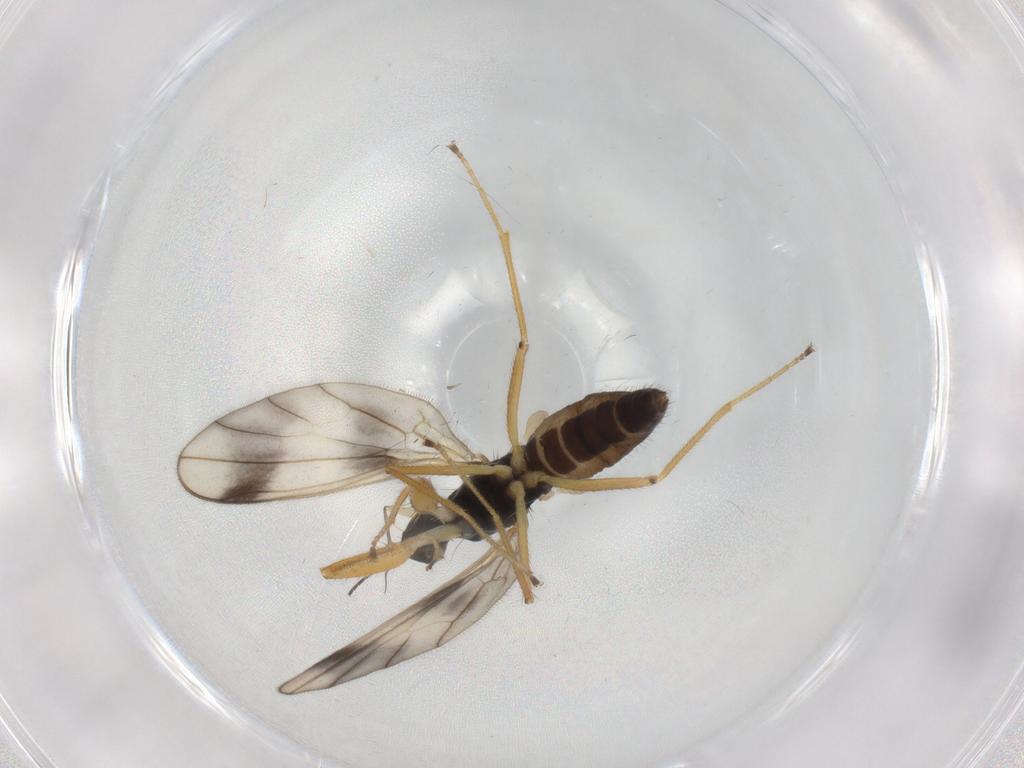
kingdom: Animalia
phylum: Arthropoda
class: Insecta
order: Diptera
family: Empididae
